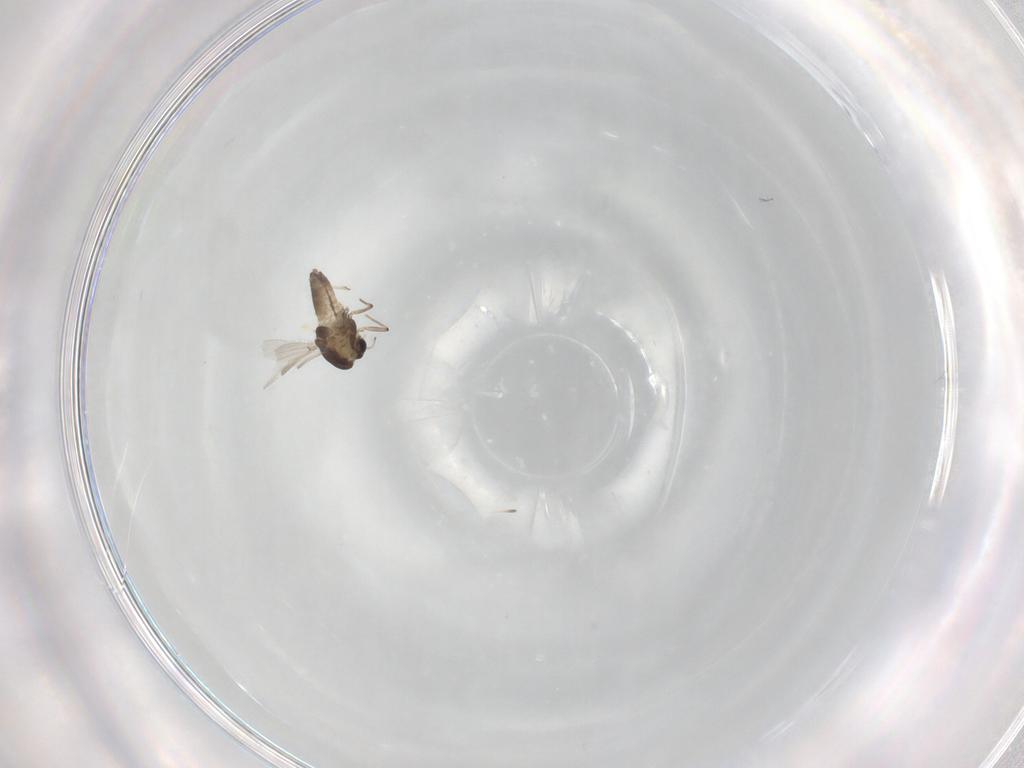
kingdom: Animalia
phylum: Arthropoda
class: Insecta
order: Diptera
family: Chironomidae
